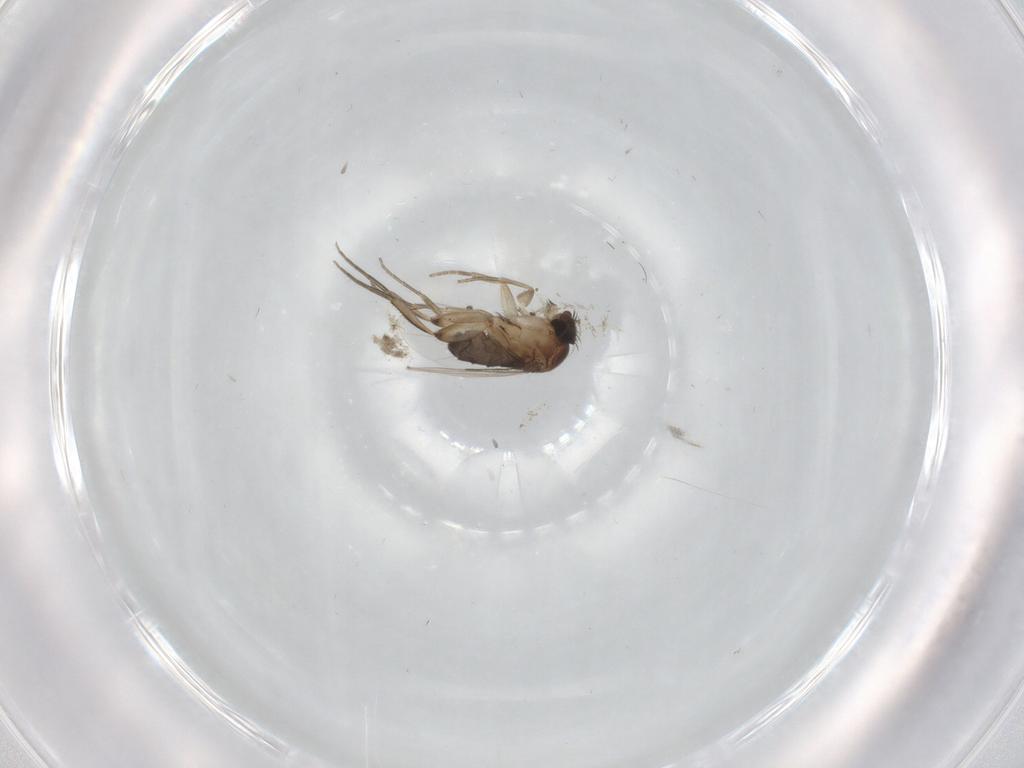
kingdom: Animalia
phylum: Arthropoda
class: Insecta
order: Diptera
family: Phoridae
